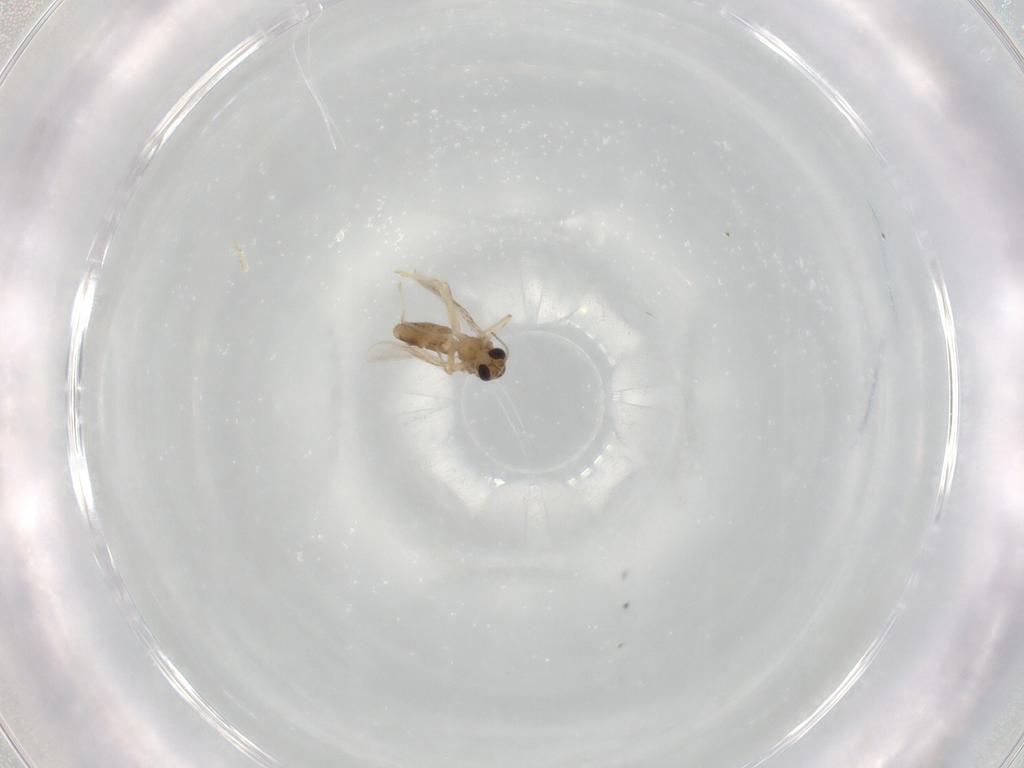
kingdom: Animalia
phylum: Arthropoda
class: Insecta
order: Diptera
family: Chironomidae
